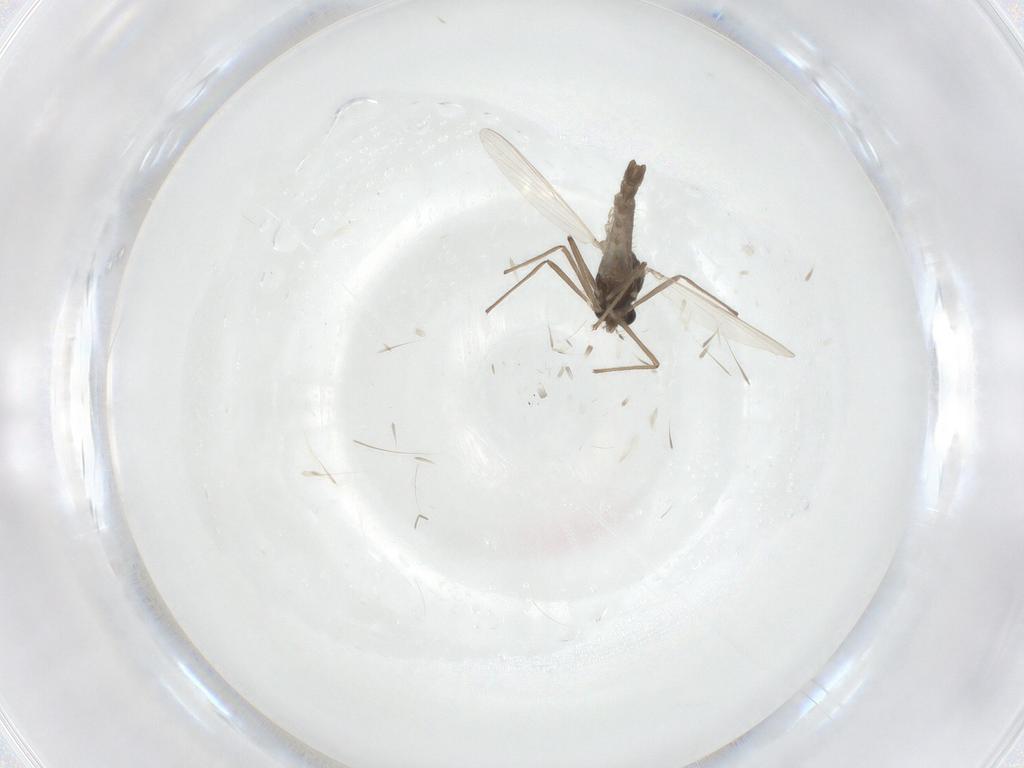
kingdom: Animalia
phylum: Arthropoda
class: Insecta
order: Diptera
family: Chironomidae
